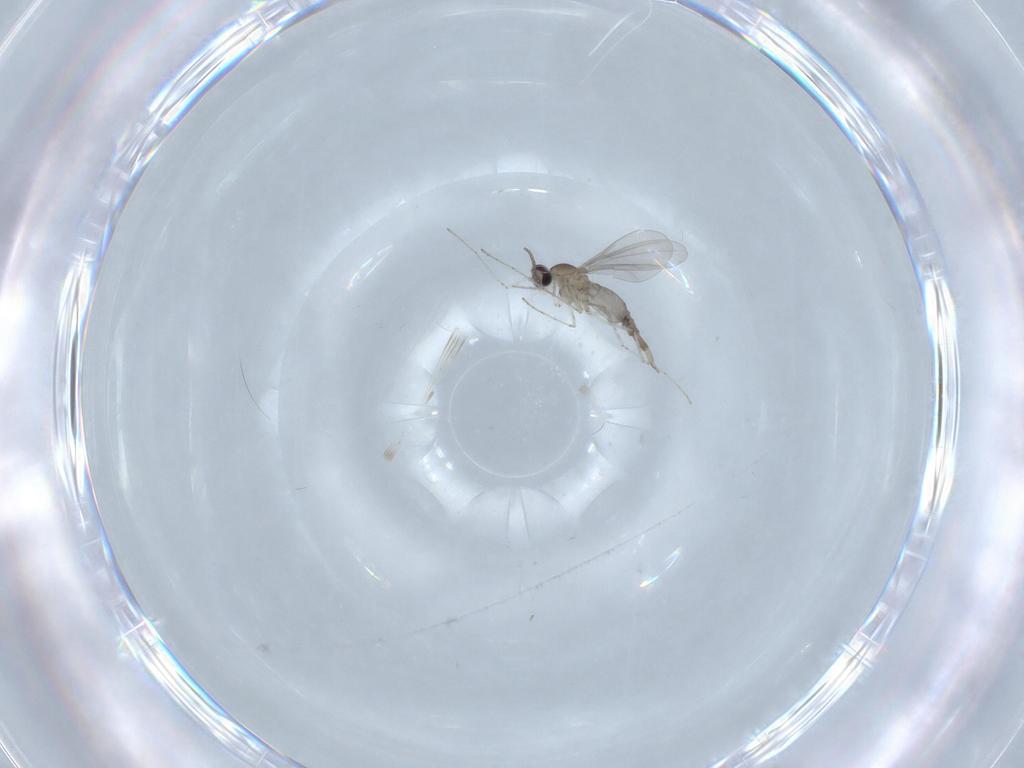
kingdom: Animalia
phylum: Arthropoda
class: Insecta
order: Diptera
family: Cecidomyiidae
